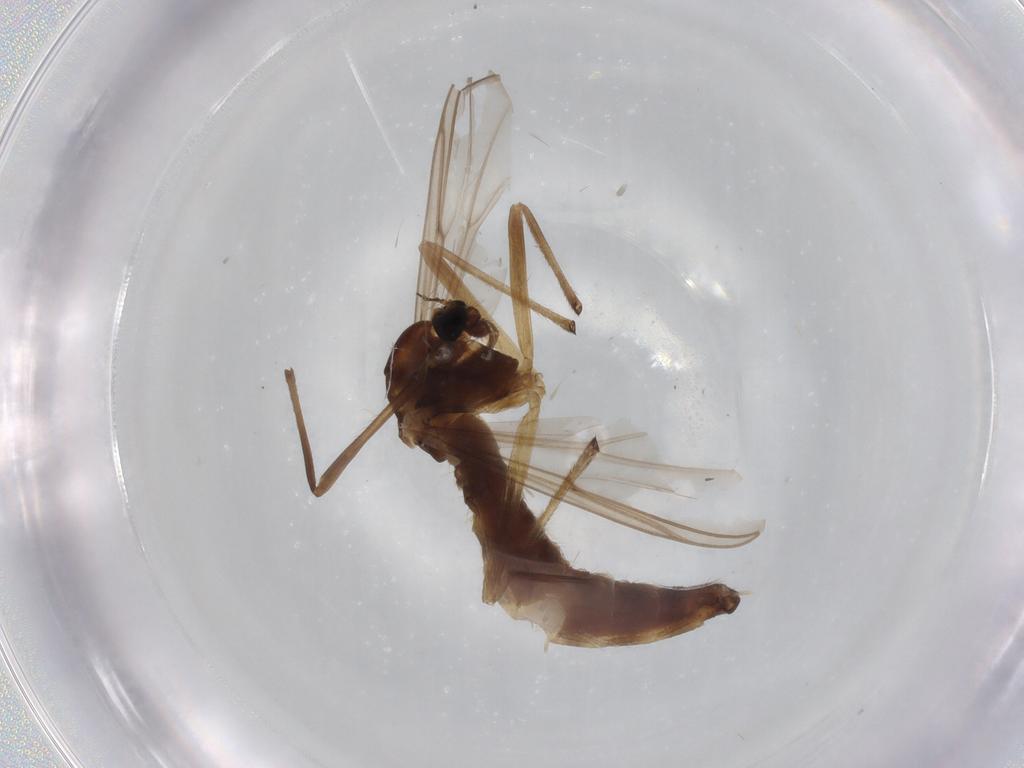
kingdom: Animalia
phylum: Arthropoda
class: Insecta
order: Diptera
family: Chironomidae
